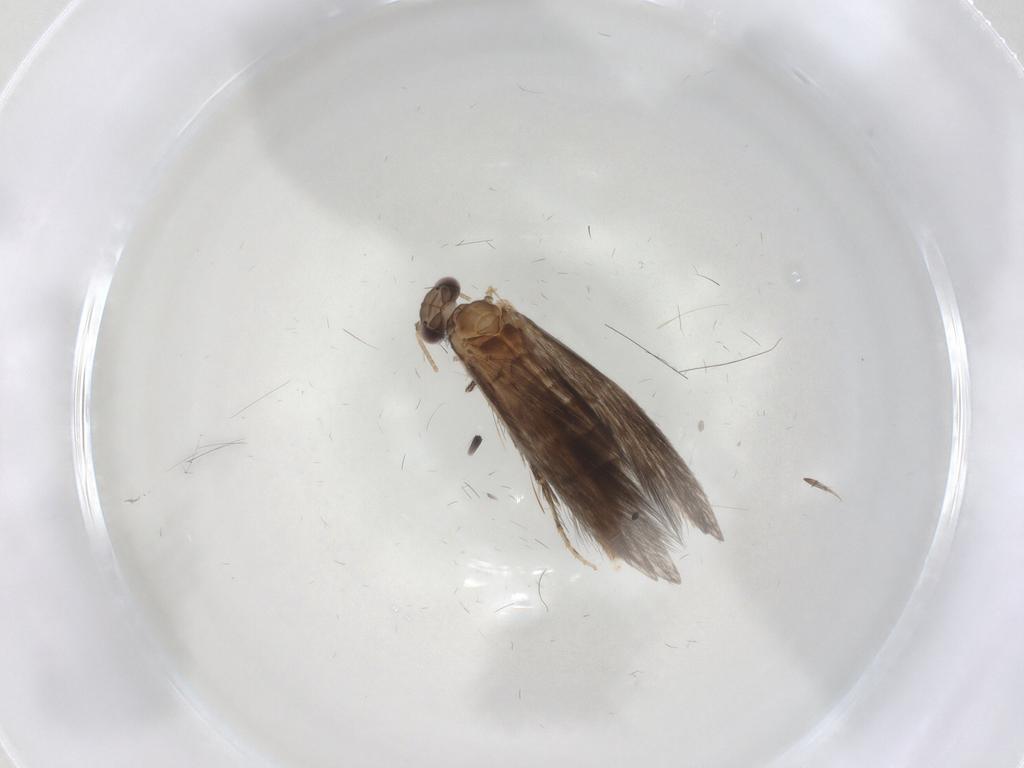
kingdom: Animalia
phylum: Arthropoda
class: Insecta
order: Trichoptera
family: Hydroptilidae
